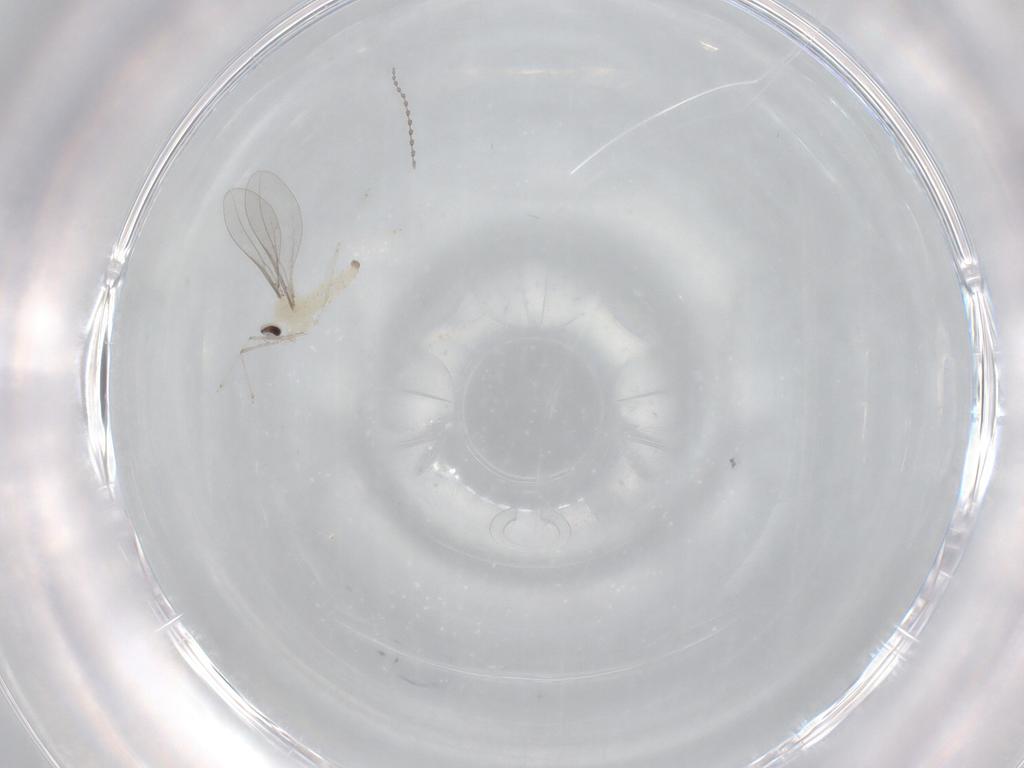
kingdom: Animalia
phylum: Arthropoda
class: Insecta
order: Diptera
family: Cecidomyiidae
